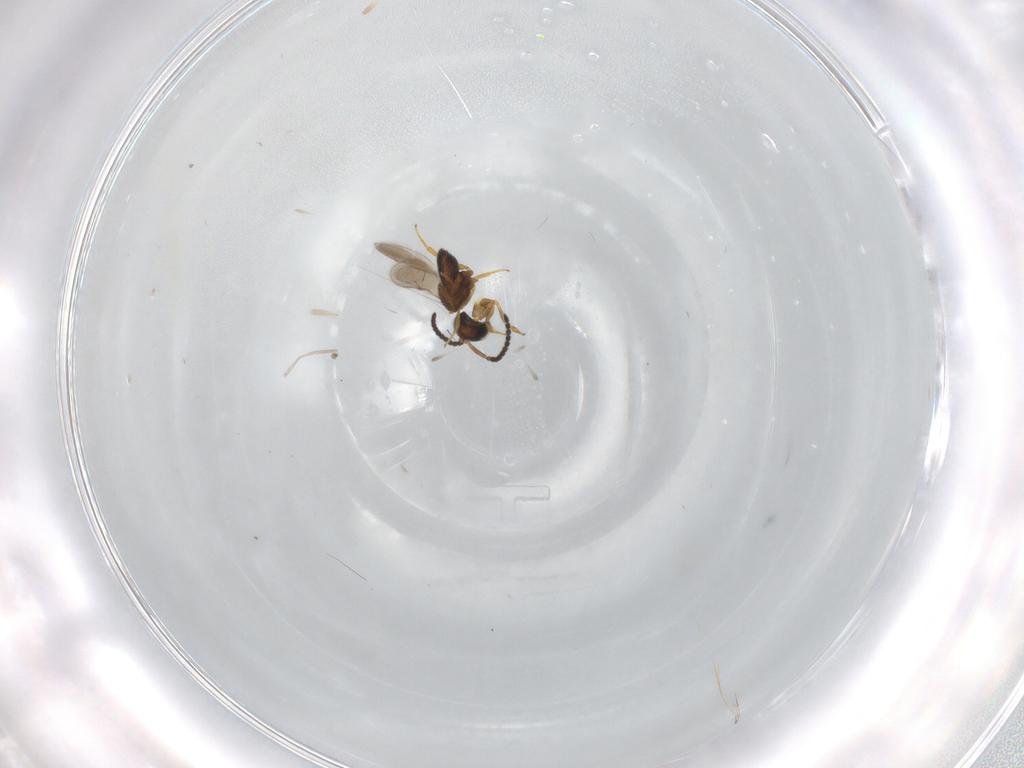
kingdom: Animalia
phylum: Arthropoda
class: Insecta
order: Hymenoptera
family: Scelionidae
